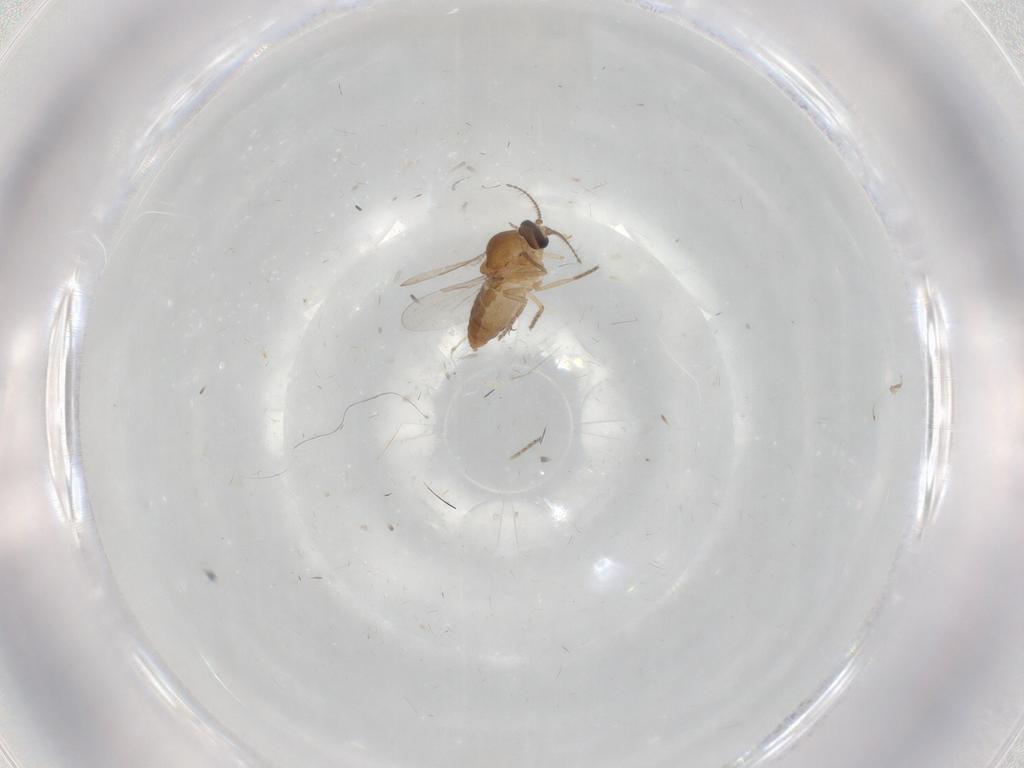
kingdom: Animalia
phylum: Arthropoda
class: Insecta
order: Diptera
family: Ceratopogonidae
